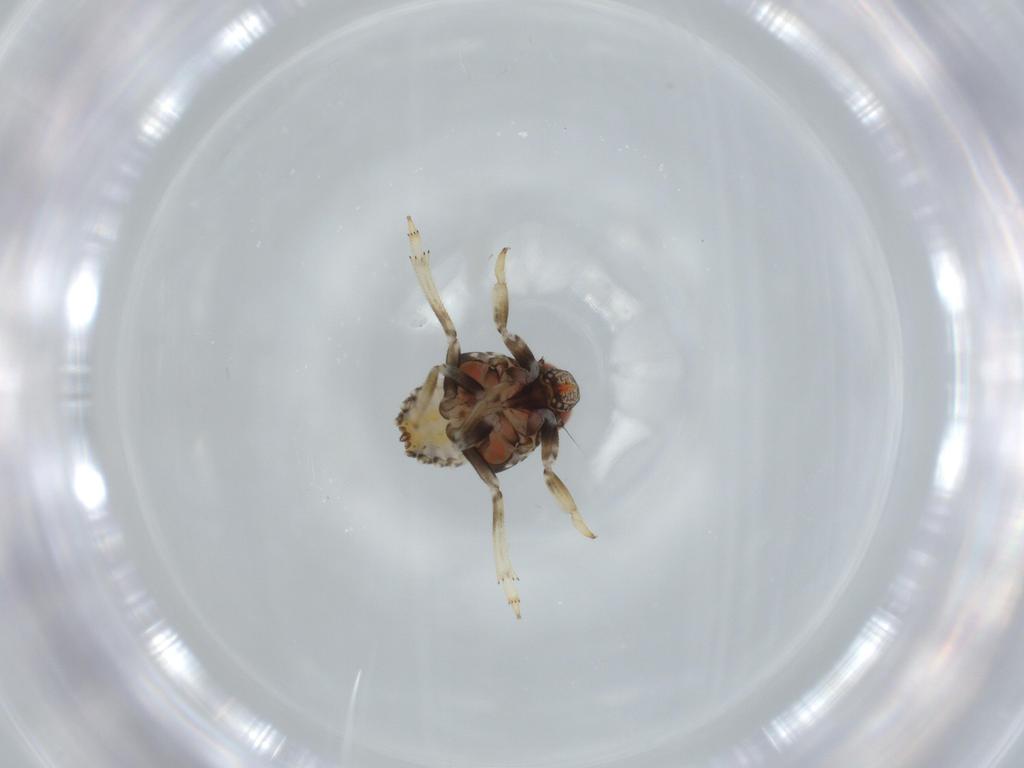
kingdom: Animalia
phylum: Arthropoda
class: Insecta
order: Hemiptera
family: Issidae
